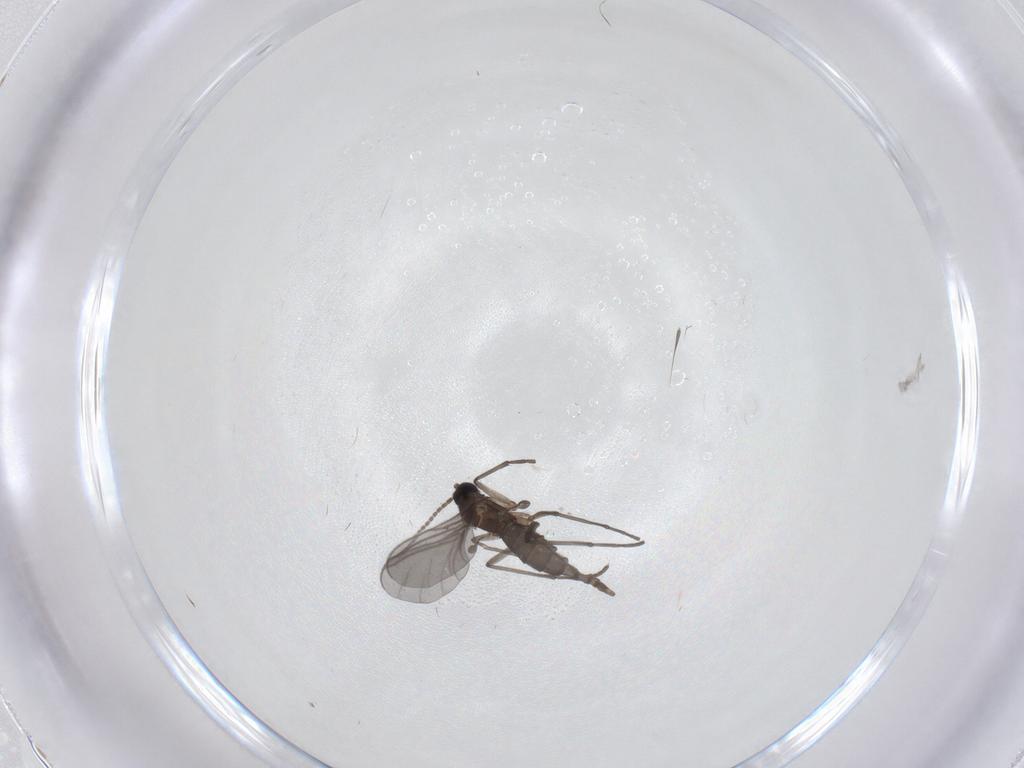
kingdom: Animalia
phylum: Arthropoda
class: Insecta
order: Diptera
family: Sciaridae
